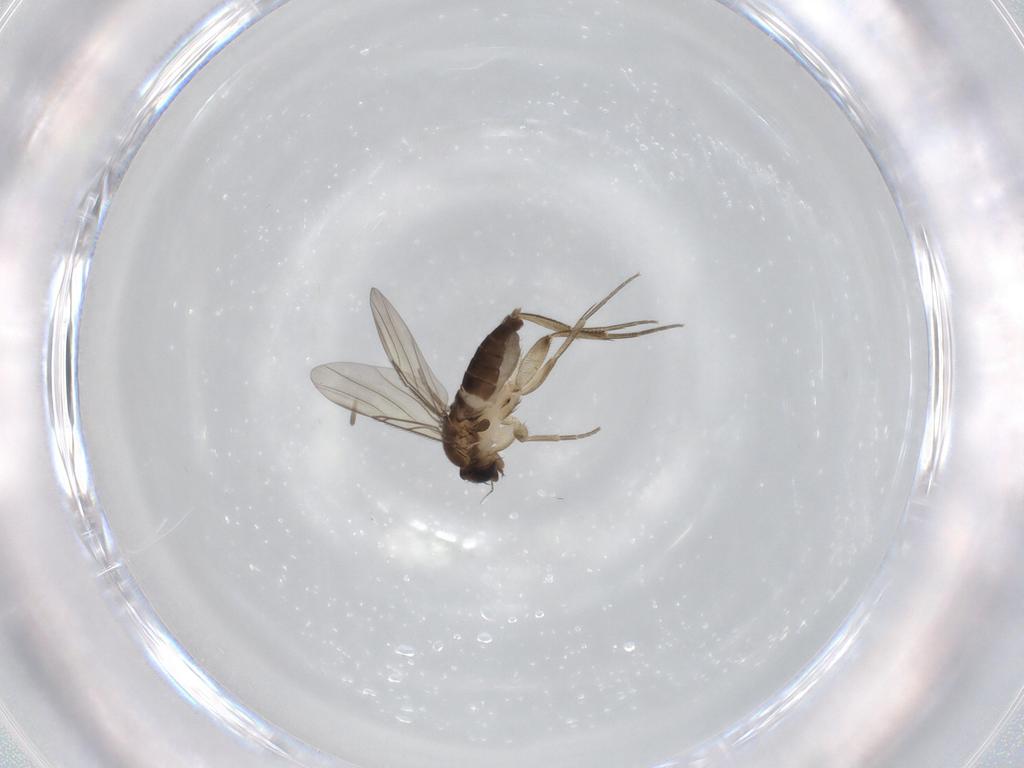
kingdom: Animalia
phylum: Arthropoda
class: Insecta
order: Diptera
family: Phoridae
